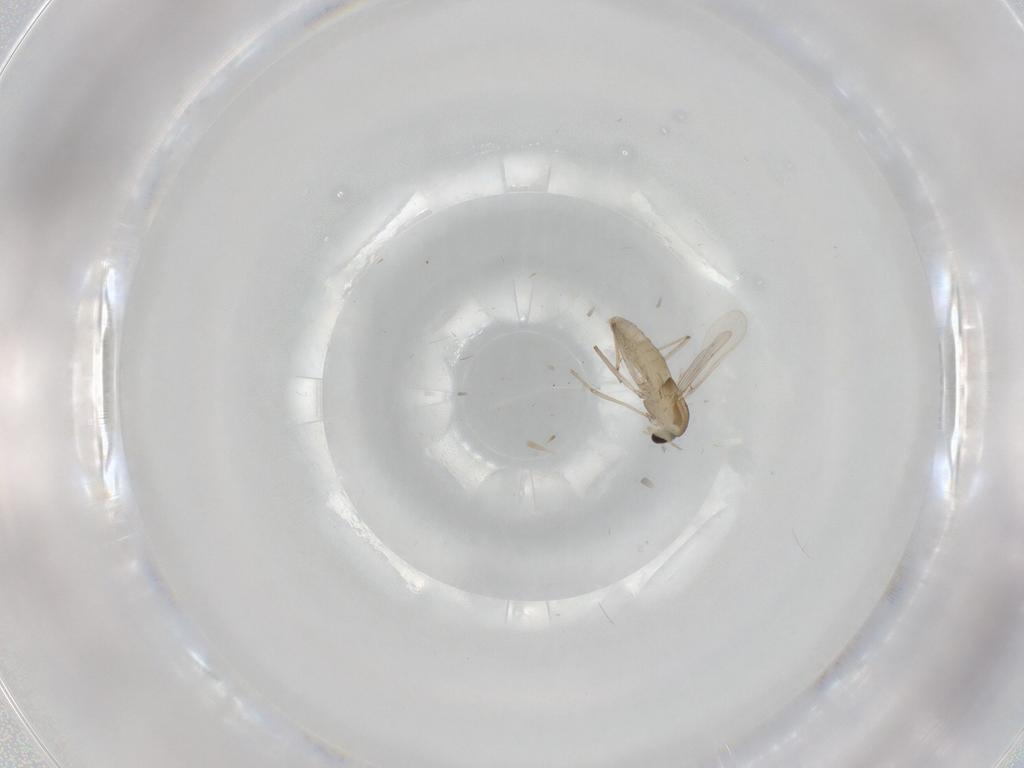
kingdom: Animalia
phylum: Arthropoda
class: Insecta
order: Diptera
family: Chironomidae
